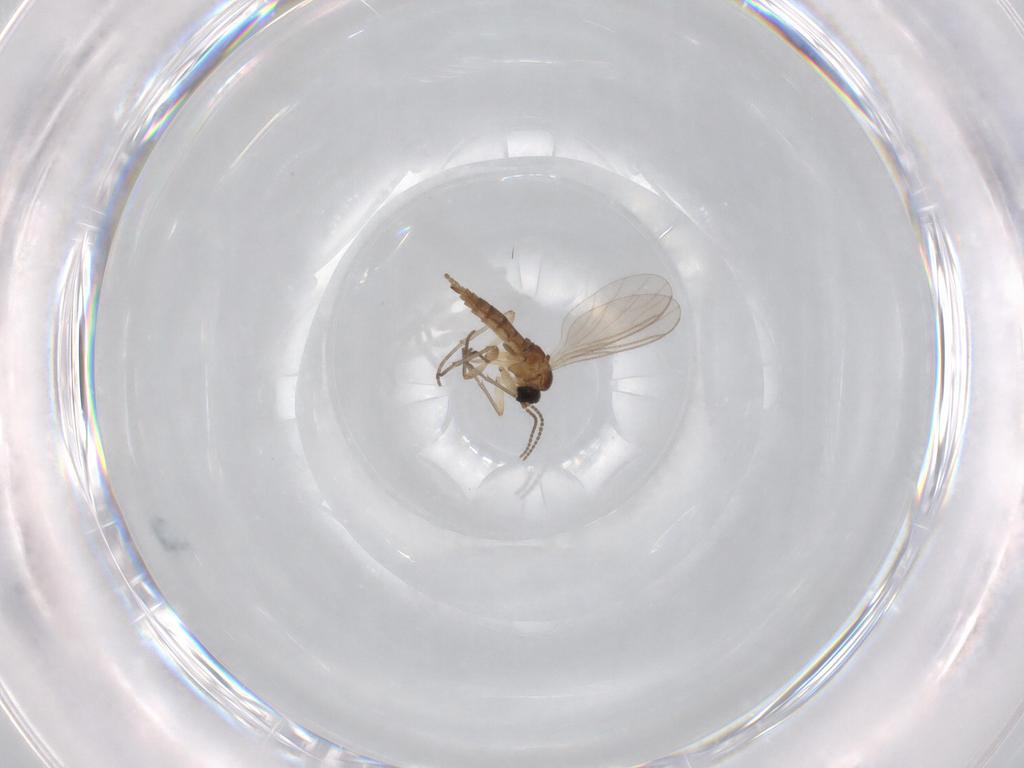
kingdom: Animalia
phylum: Arthropoda
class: Insecta
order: Diptera
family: Sciaridae
